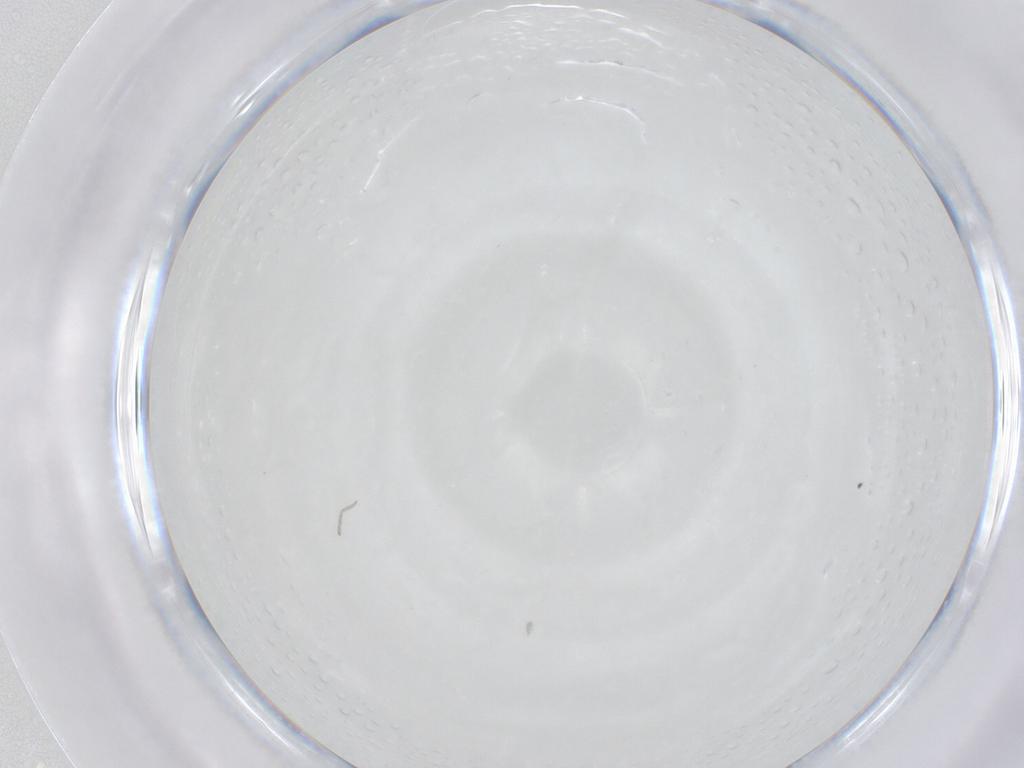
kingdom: Animalia
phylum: Arthropoda
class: Insecta
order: Diptera
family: Cecidomyiidae
